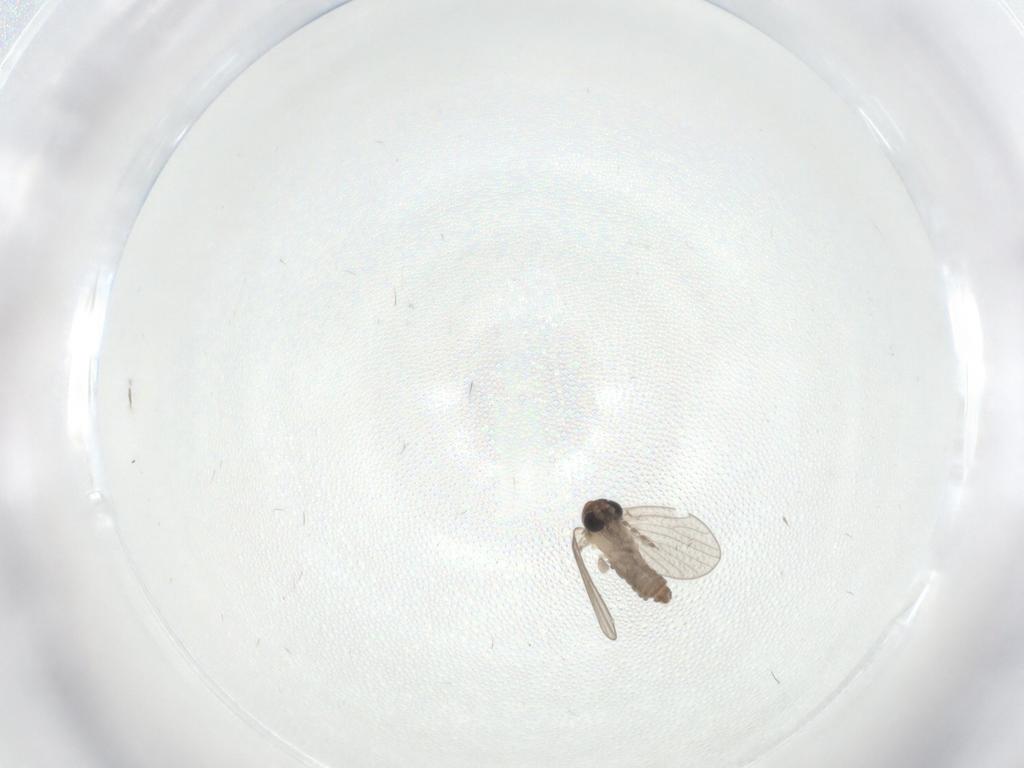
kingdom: Animalia
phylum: Arthropoda
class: Insecta
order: Diptera
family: Psychodidae
